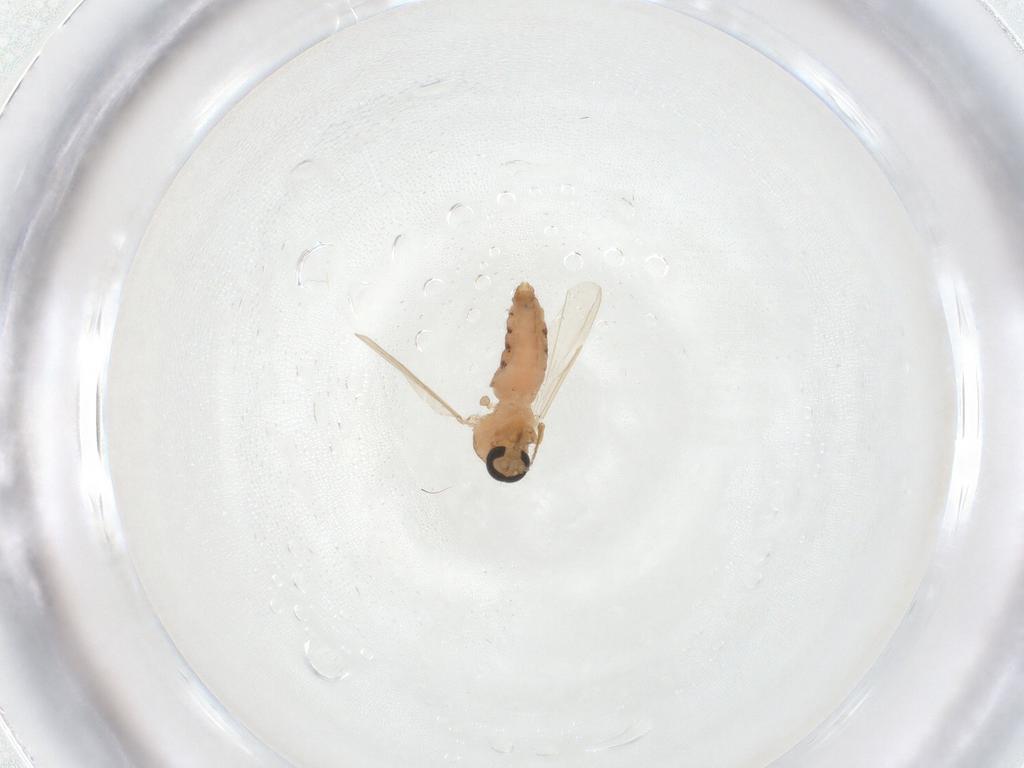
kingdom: Animalia
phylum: Arthropoda
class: Insecta
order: Diptera
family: Ceratopogonidae
